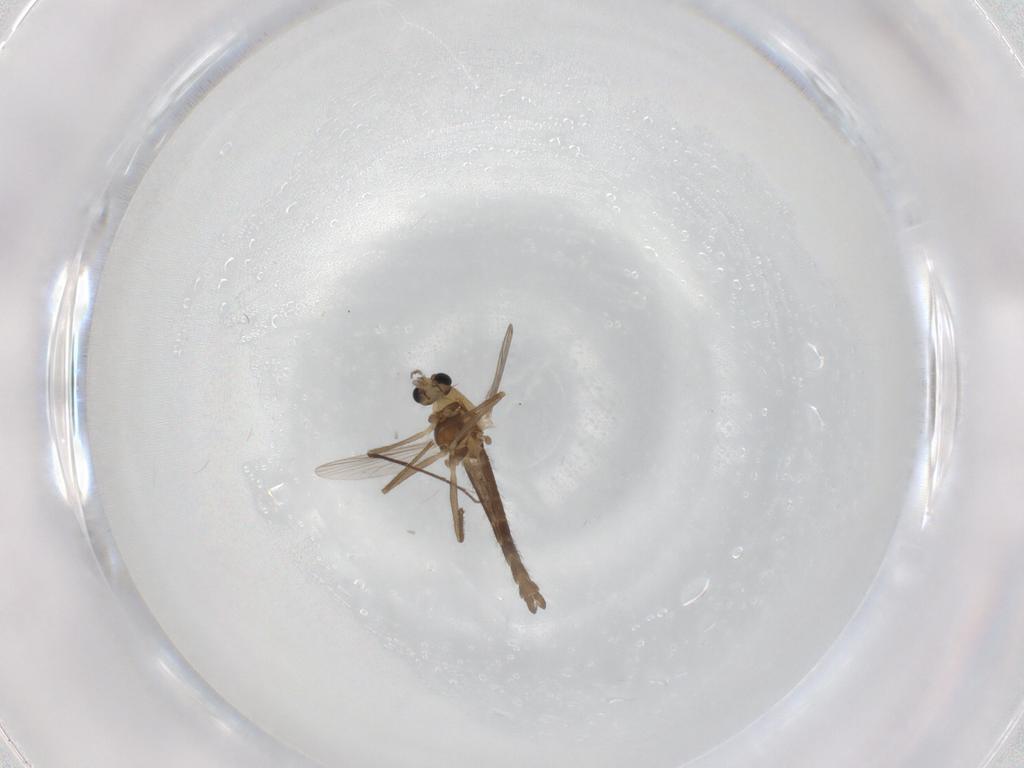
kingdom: Animalia
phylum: Arthropoda
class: Insecta
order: Diptera
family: Chironomidae
